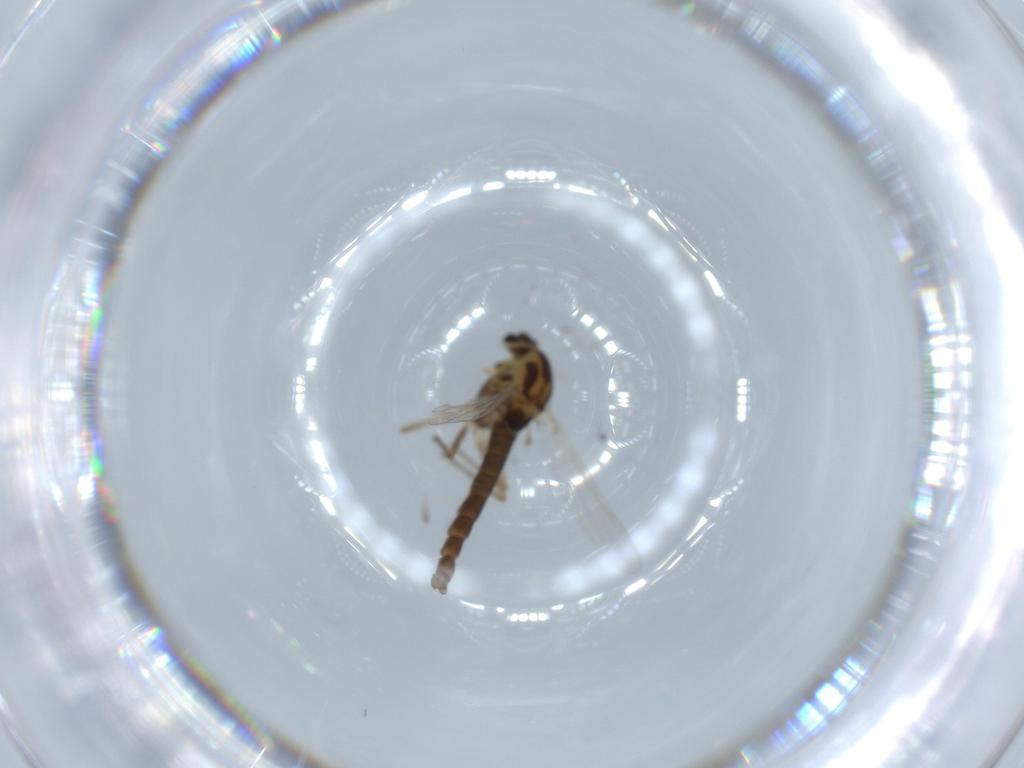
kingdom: Animalia
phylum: Arthropoda
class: Insecta
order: Diptera
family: Chironomidae
